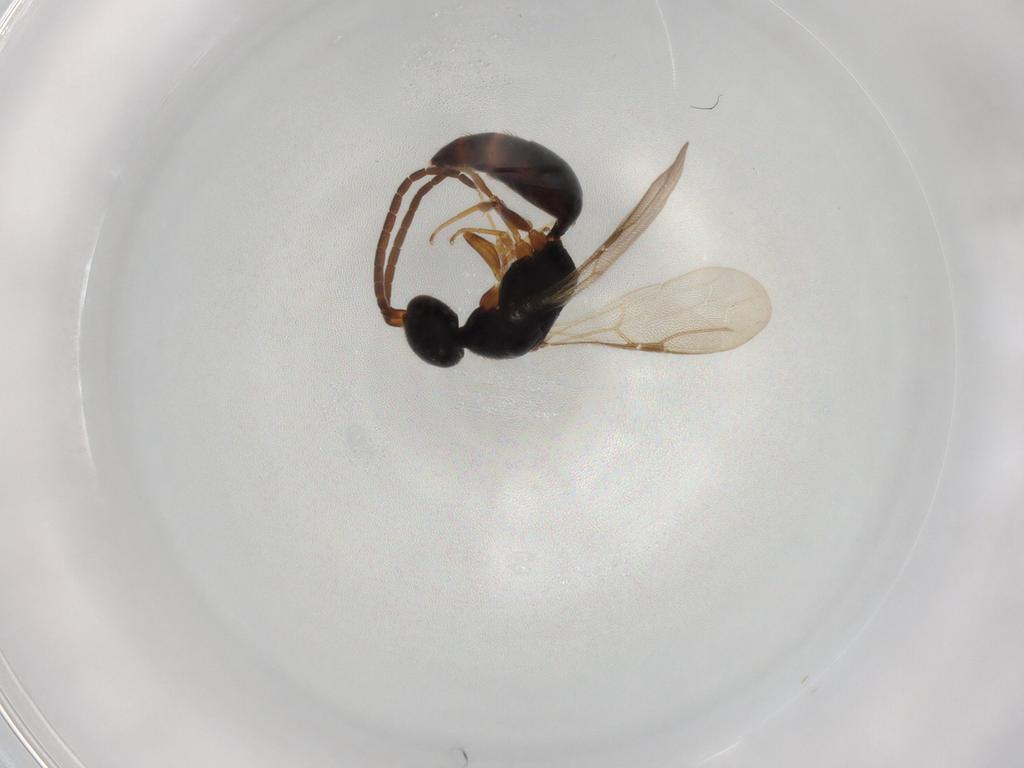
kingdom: Animalia
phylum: Arthropoda
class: Insecta
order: Hymenoptera
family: Bethylidae
